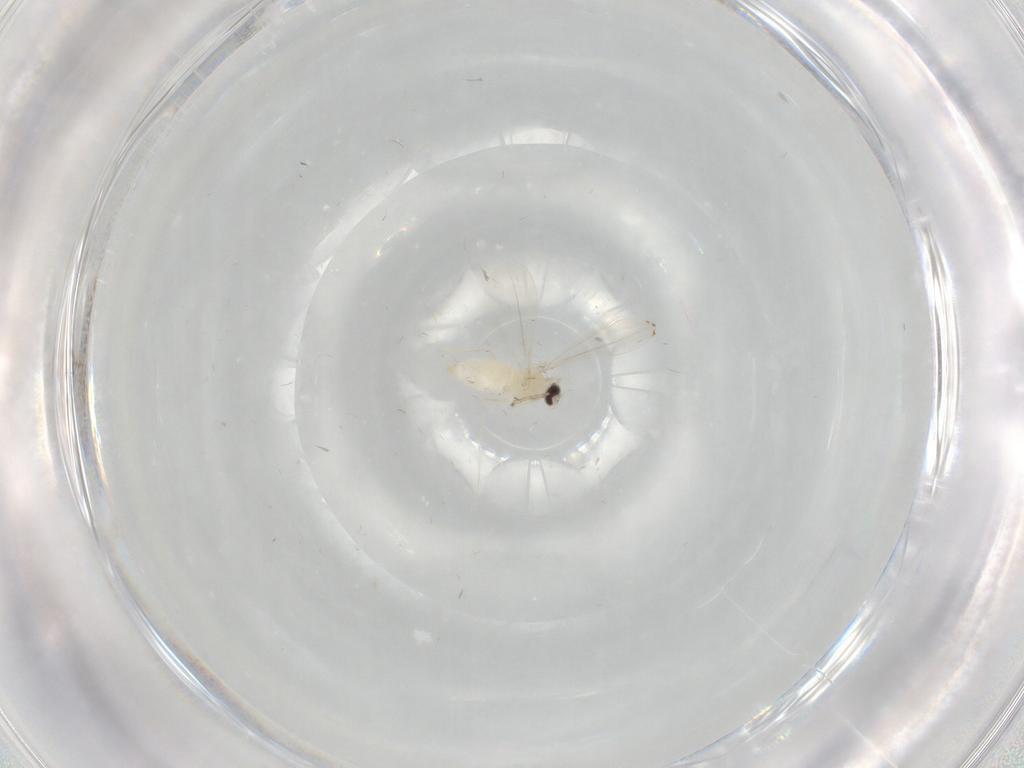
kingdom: Animalia
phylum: Arthropoda
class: Insecta
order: Diptera
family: Cecidomyiidae
